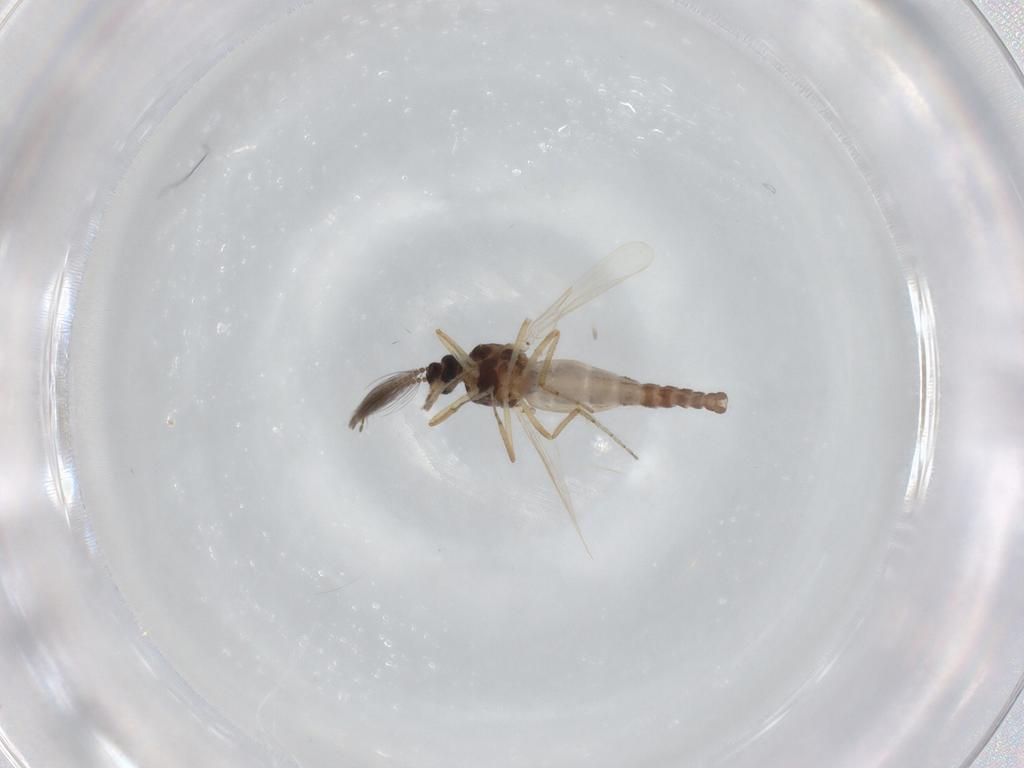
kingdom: Animalia
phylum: Arthropoda
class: Insecta
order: Diptera
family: Ceratopogonidae
